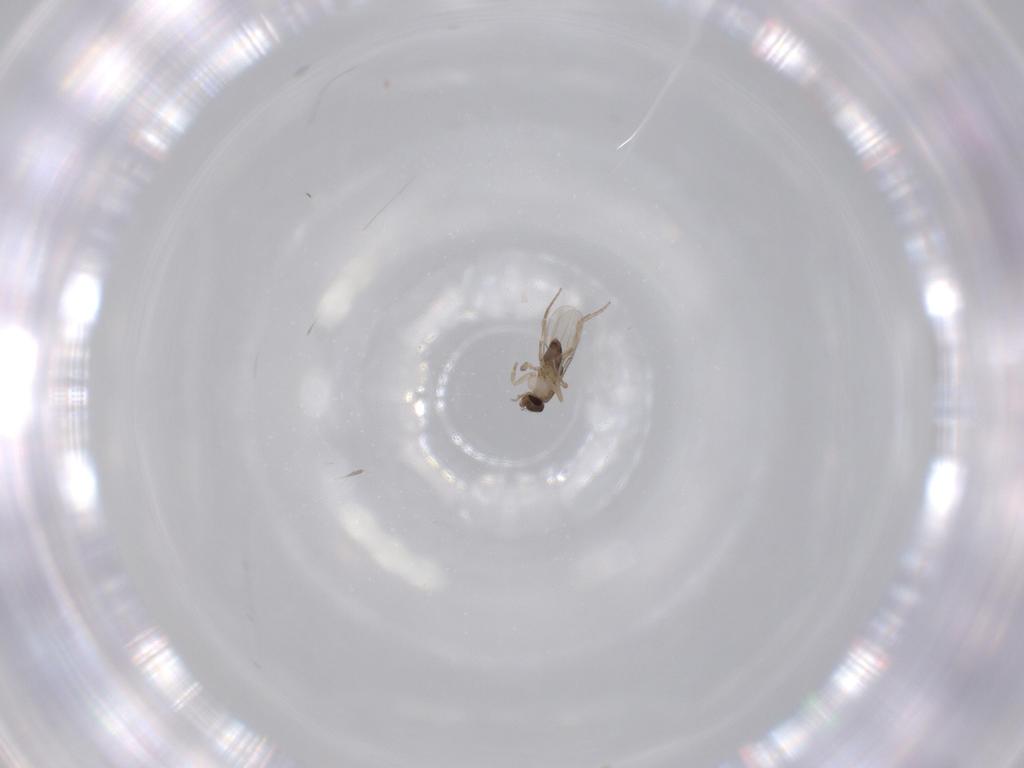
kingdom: Animalia
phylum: Arthropoda
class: Insecta
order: Diptera
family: Phoridae
